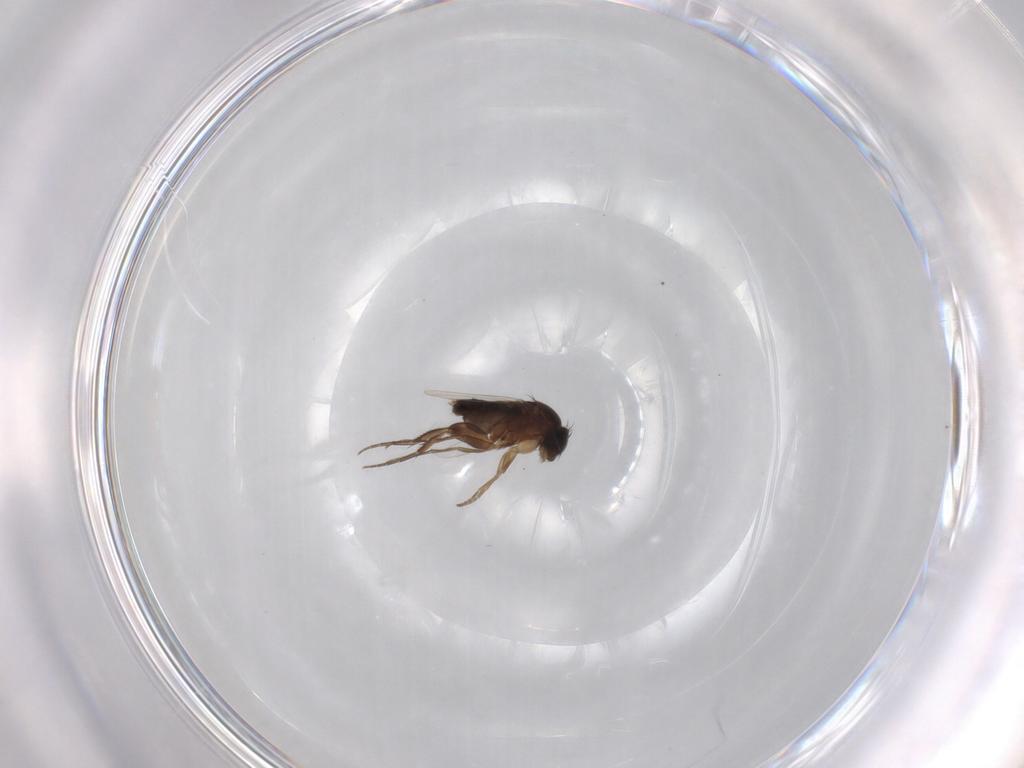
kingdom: Animalia
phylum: Arthropoda
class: Insecta
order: Diptera
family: Phoridae
